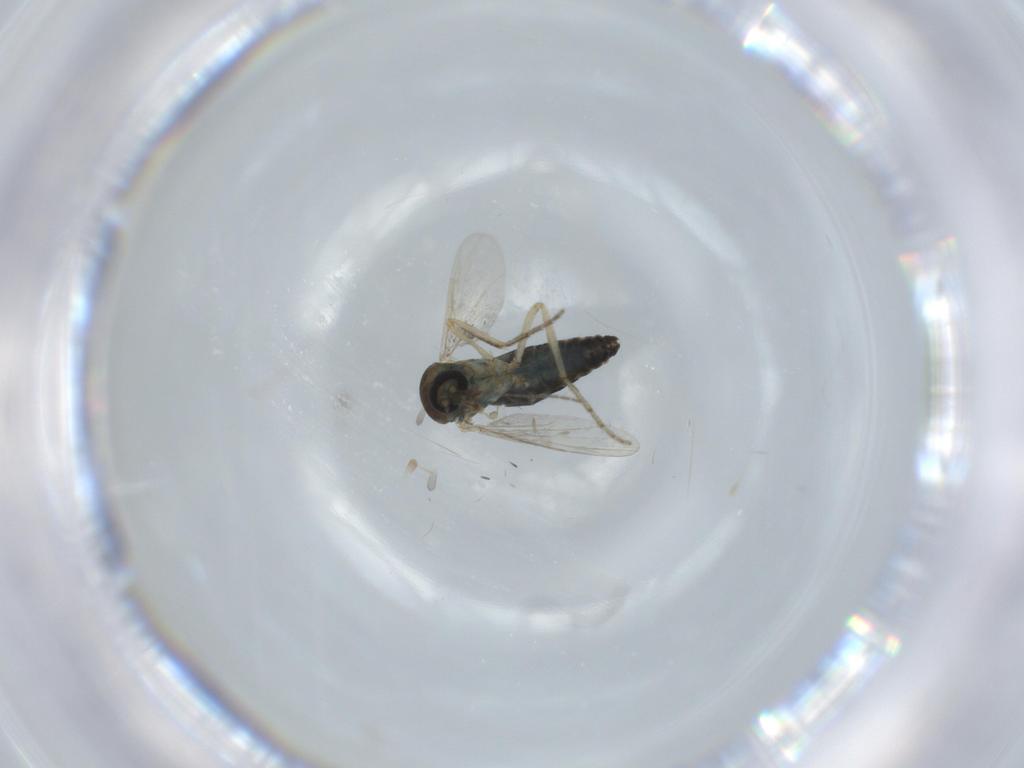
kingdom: Animalia
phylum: Arthropoda
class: Insecta
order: Diptera
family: Ceratopogonidae
